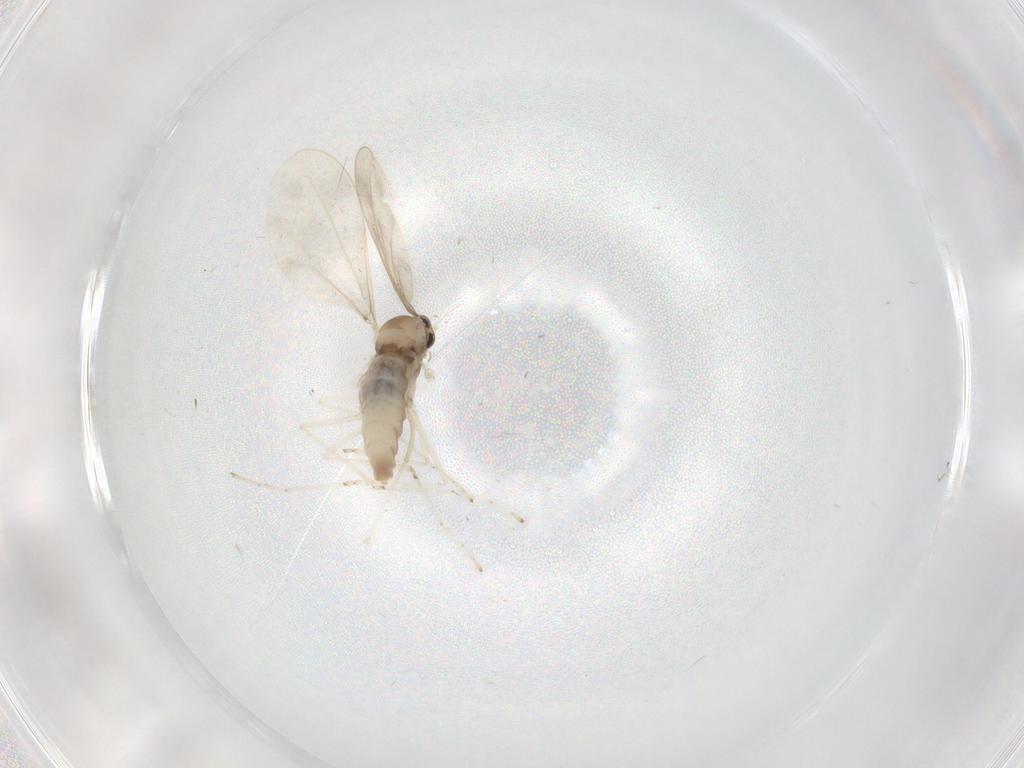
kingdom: Animalia
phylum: Arthropoda
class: Insecta
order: Diptera
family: Cecidomyiidae
